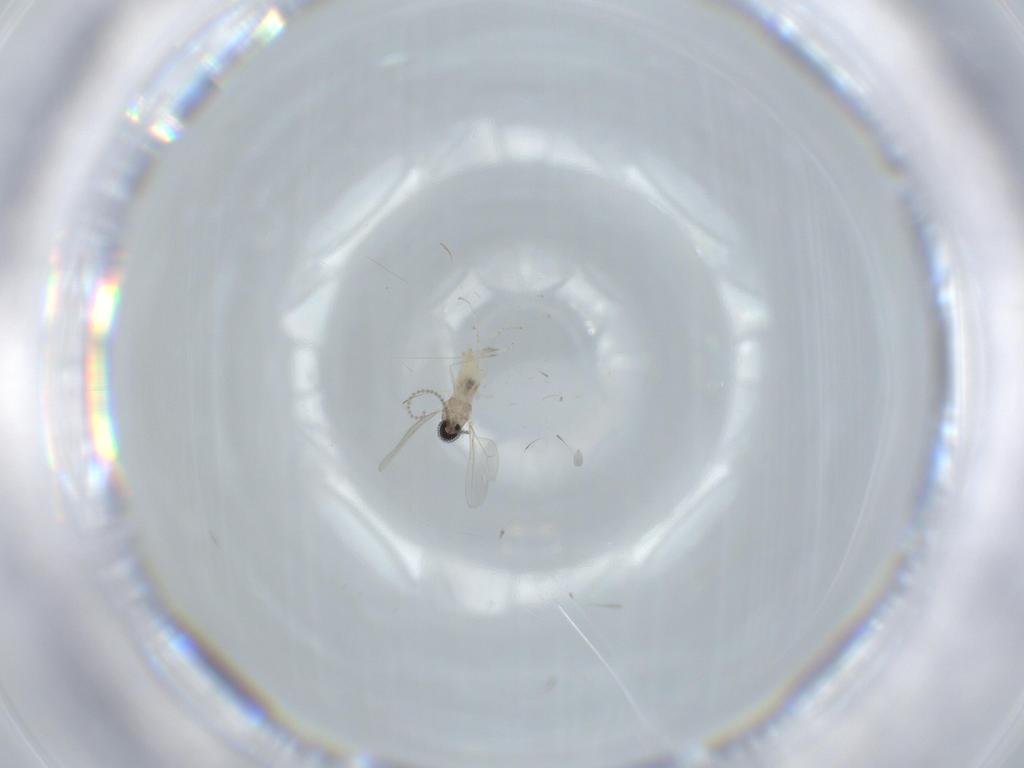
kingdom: Animalia
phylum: Arthropoda
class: Insecta
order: Diptera
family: Cecidomyiidae
